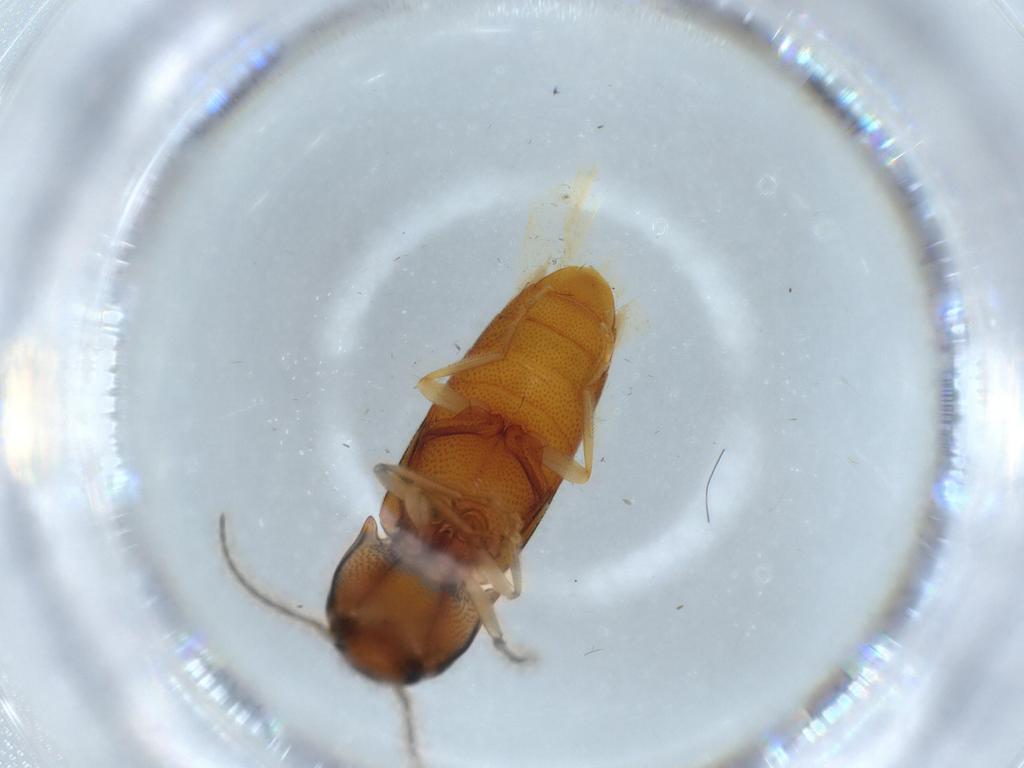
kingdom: Animalia
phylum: Arthropoda
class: Insecta
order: Coleoptera
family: Elateridae
